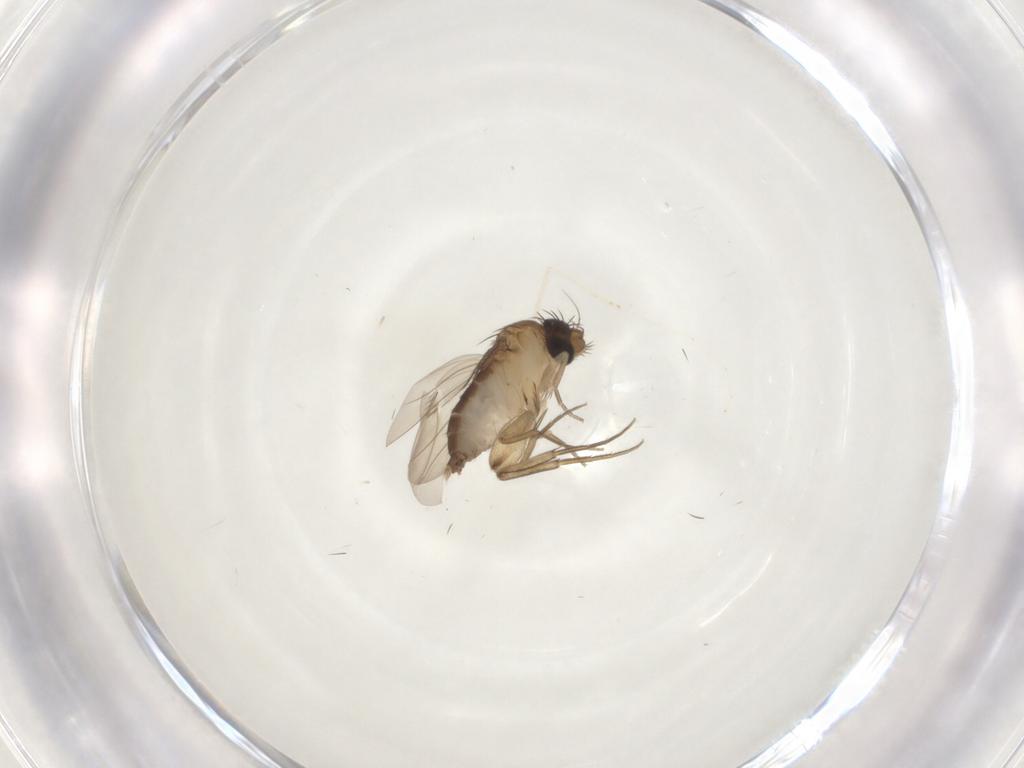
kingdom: Animalia
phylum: Arthropoda
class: Insecta
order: Diptera
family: Phoridae
